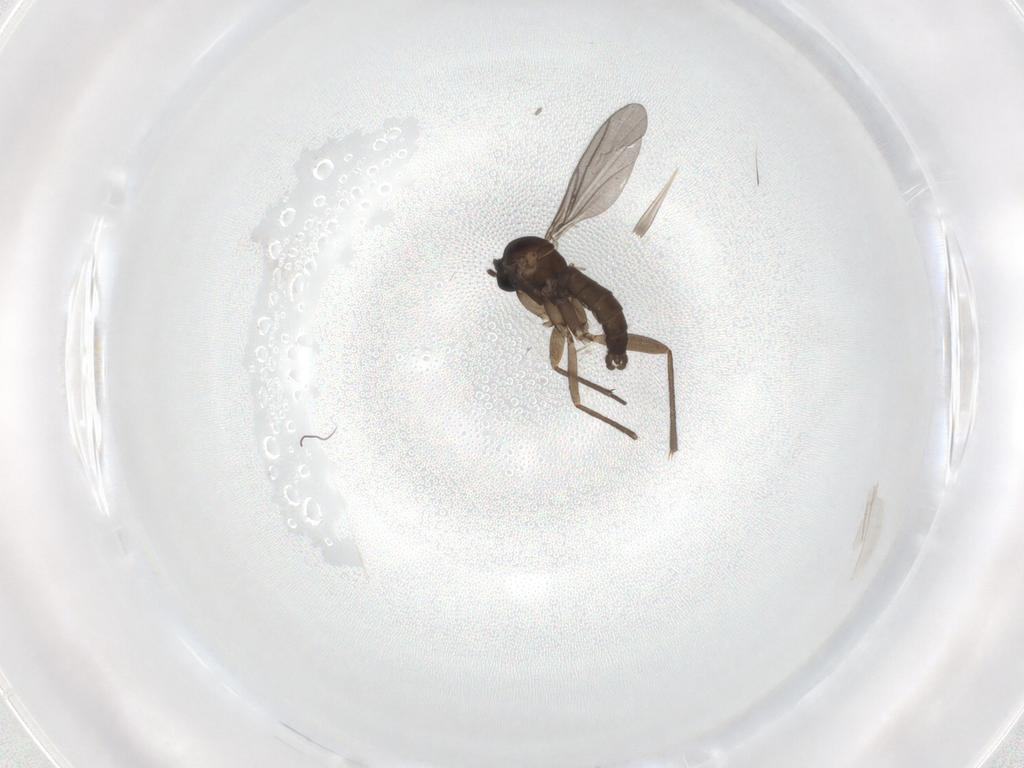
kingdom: Animalia
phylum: Arthropoda
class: Insecta
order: Diptera
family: Sciaridae
